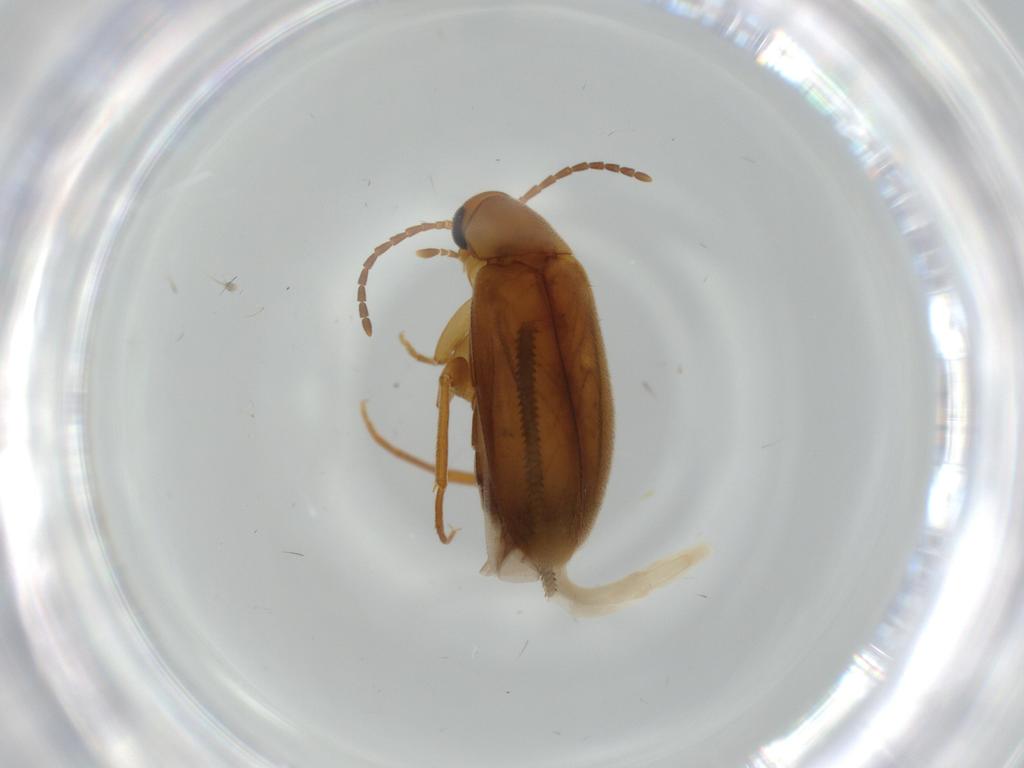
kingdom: Animalia
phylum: Arthropoda
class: Insecta
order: Coleoptera
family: Scraptiidae
